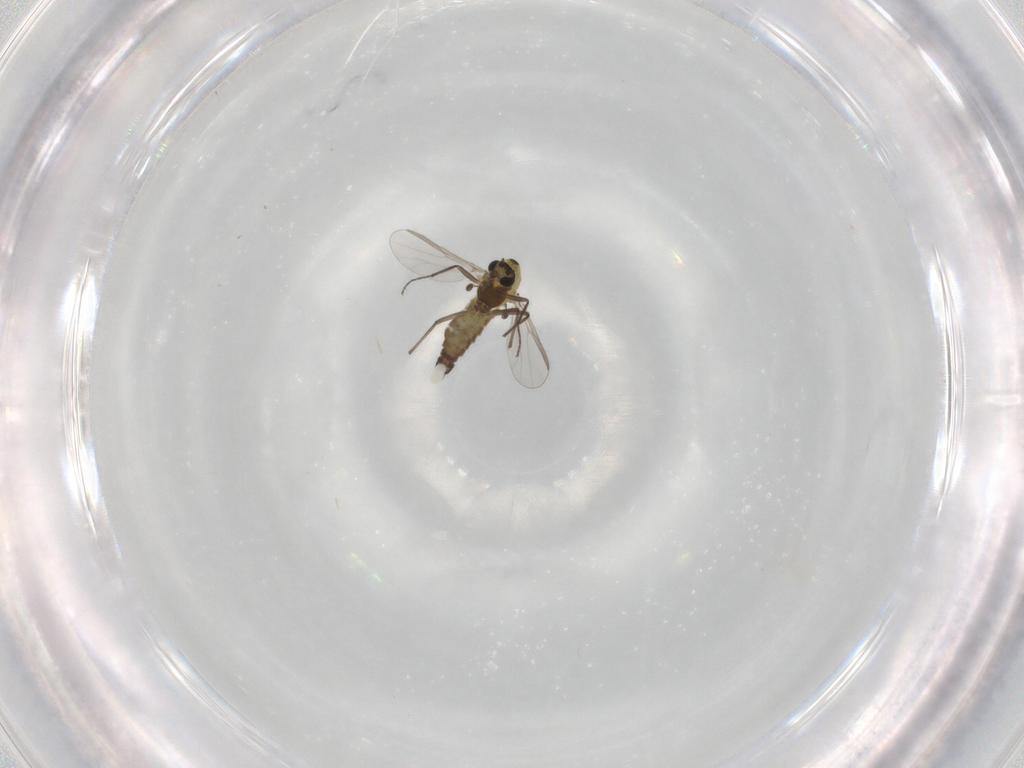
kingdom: Animalia
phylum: Arthropoda
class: Insecta
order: Diptera
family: Chironomidae
